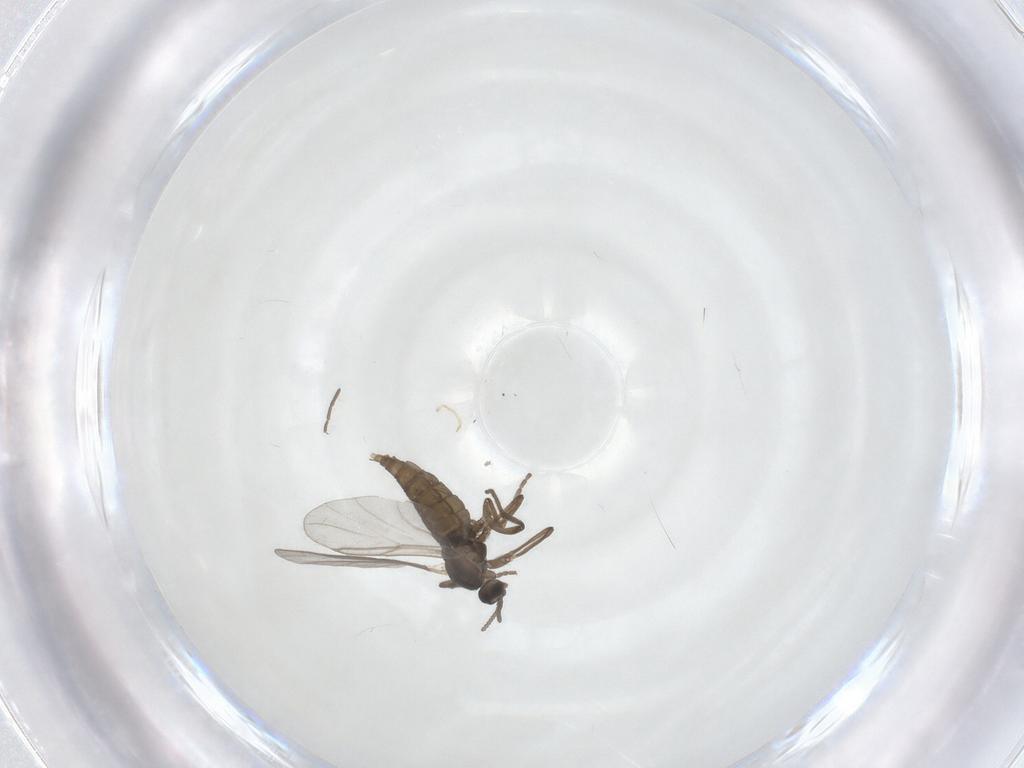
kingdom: Animalia
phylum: Arthropoda
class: Insecta
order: Diptera
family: Cecidomyiidae
